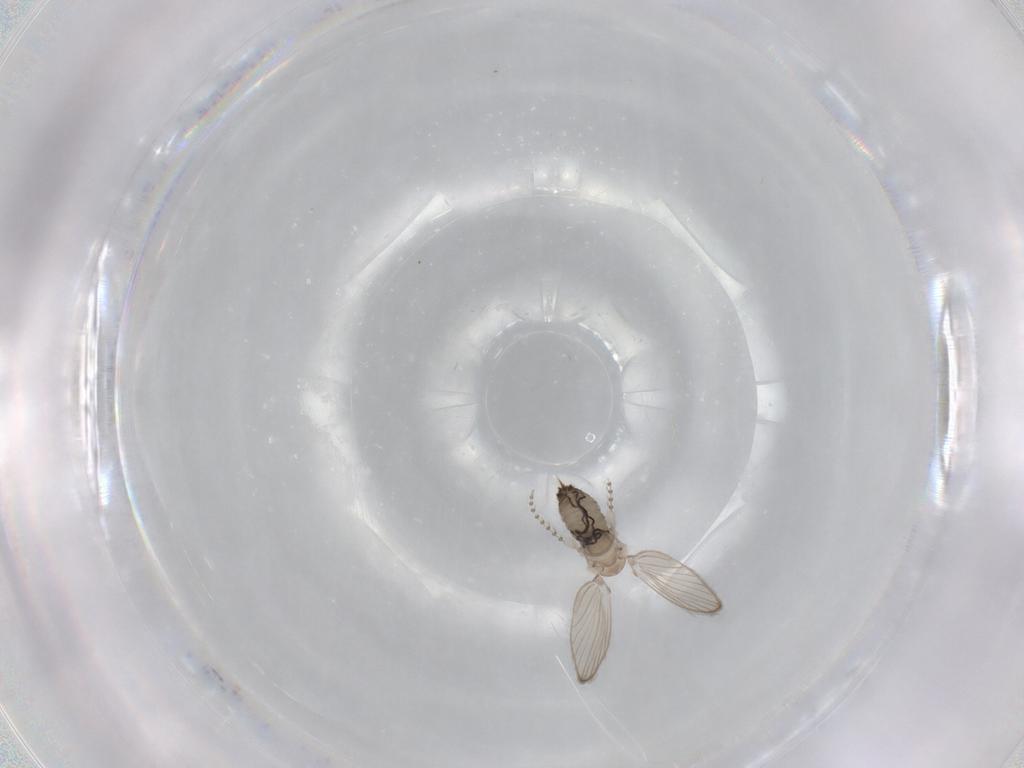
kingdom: Animalia
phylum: Arthropoda
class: Insecta
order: Diptera
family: Psychodidae
